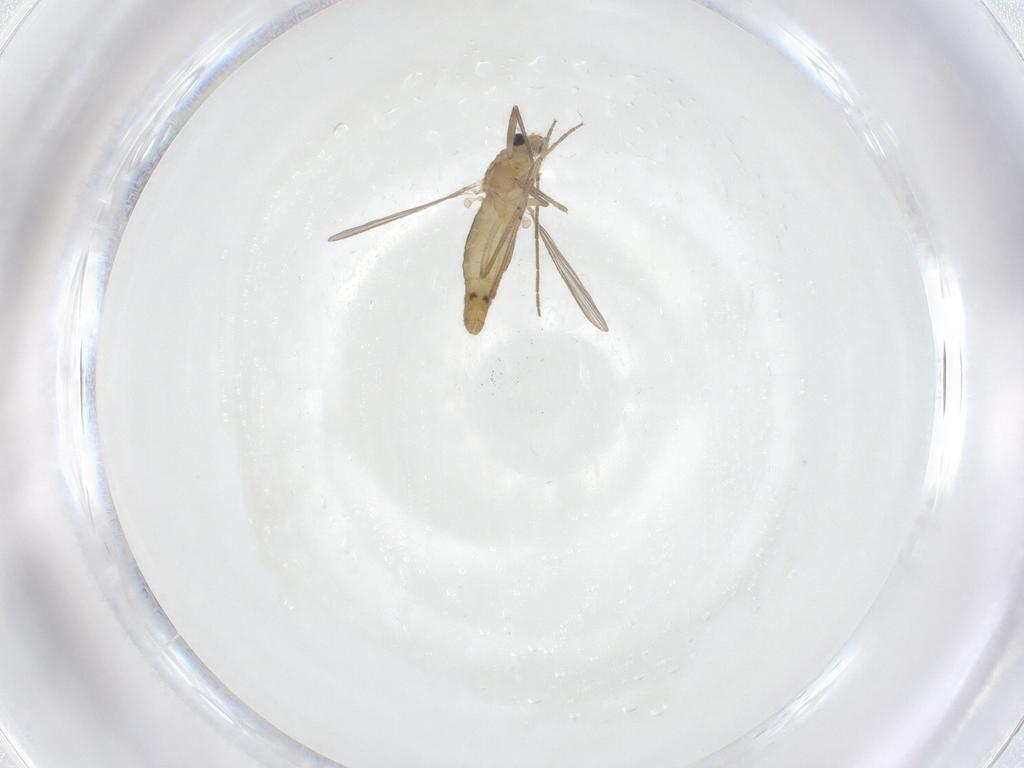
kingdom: Animalia
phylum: Arthropoda
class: Insecta
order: Diptera
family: Chironomidae
